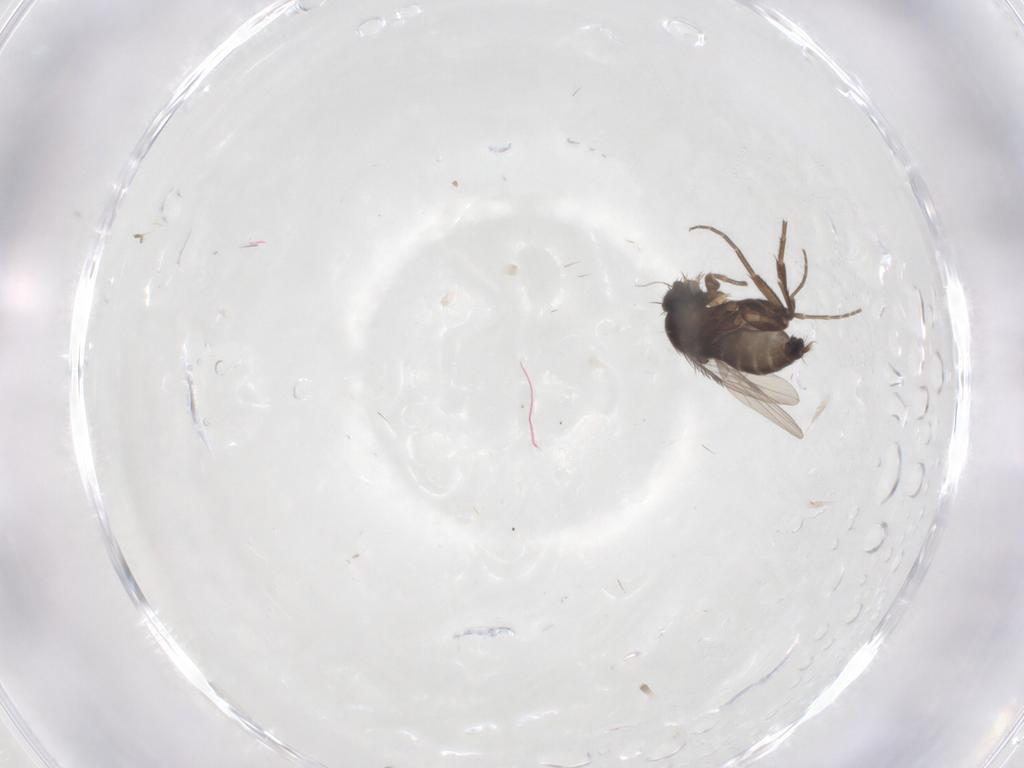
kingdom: Animalia
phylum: Arthropoda
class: Insecta
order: Diptera
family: Phoridae
